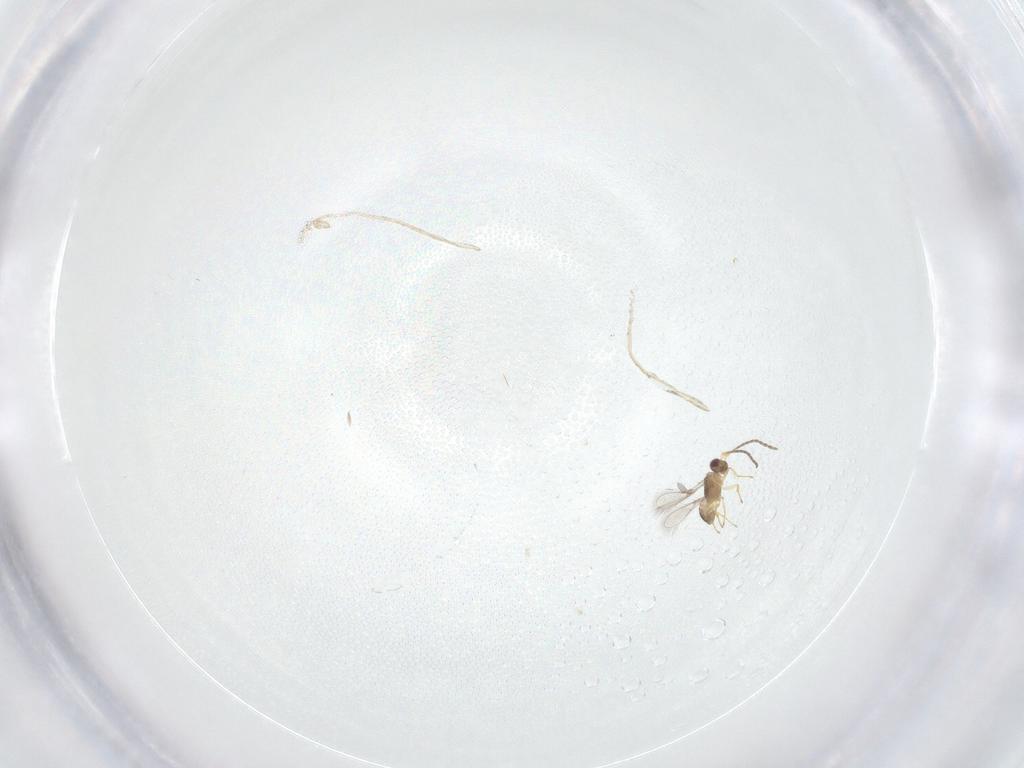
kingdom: Animalia
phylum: Arthropoda
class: Insecta
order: Hymenoptera
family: Mymaridae
